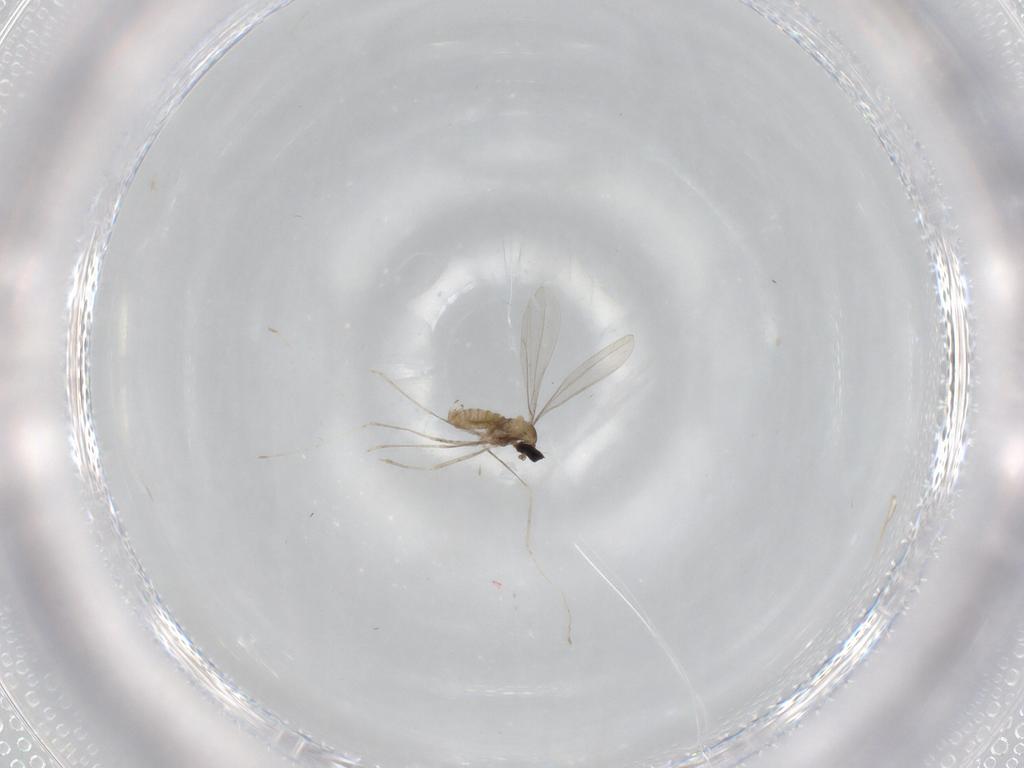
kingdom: Animalia
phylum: Arthropoda
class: Insecta
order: Diptera
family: Cecidomyiidae
